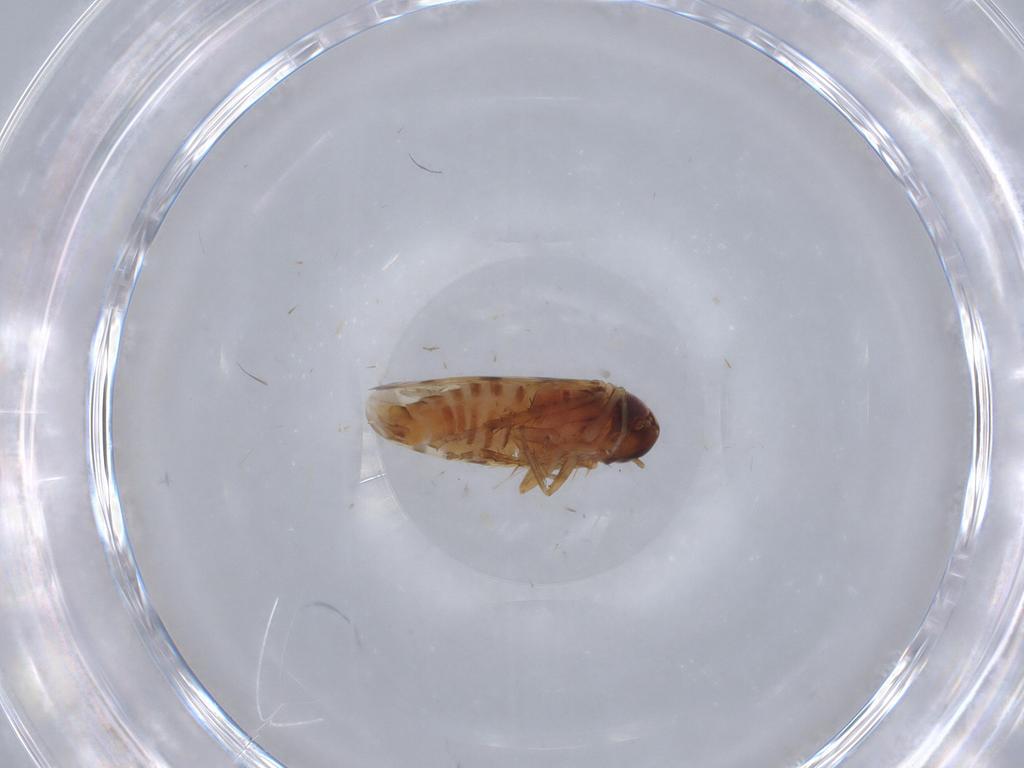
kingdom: Animalia
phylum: Arthropoda
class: Insecta
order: Hemiptera
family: Cicadellidae
